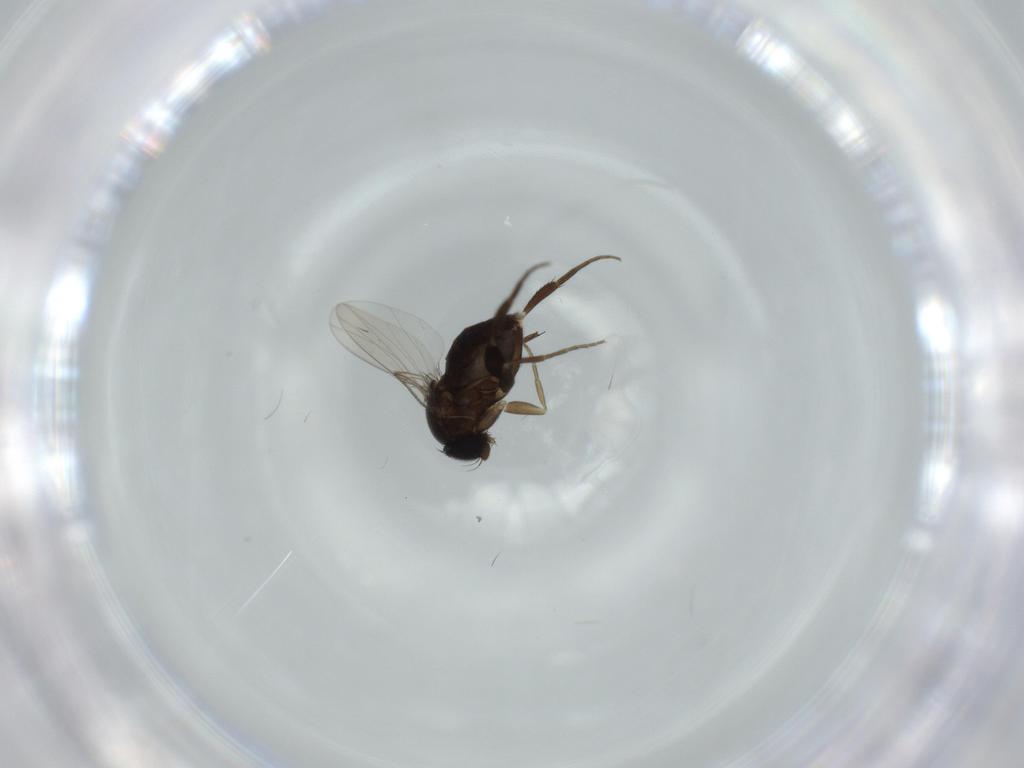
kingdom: Animalia
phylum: Arthropoda
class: Insecta
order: Diptera
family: Phoridae
